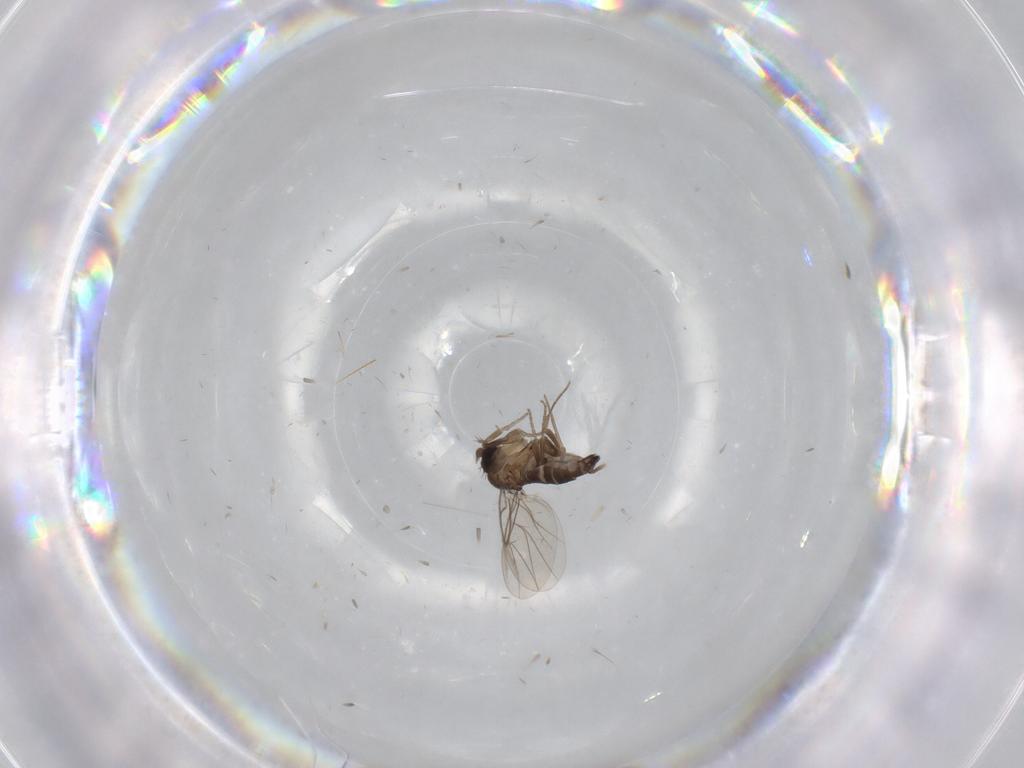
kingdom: Animalia
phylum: Arthropoda
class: Insecta
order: Diptera
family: Phoridae
